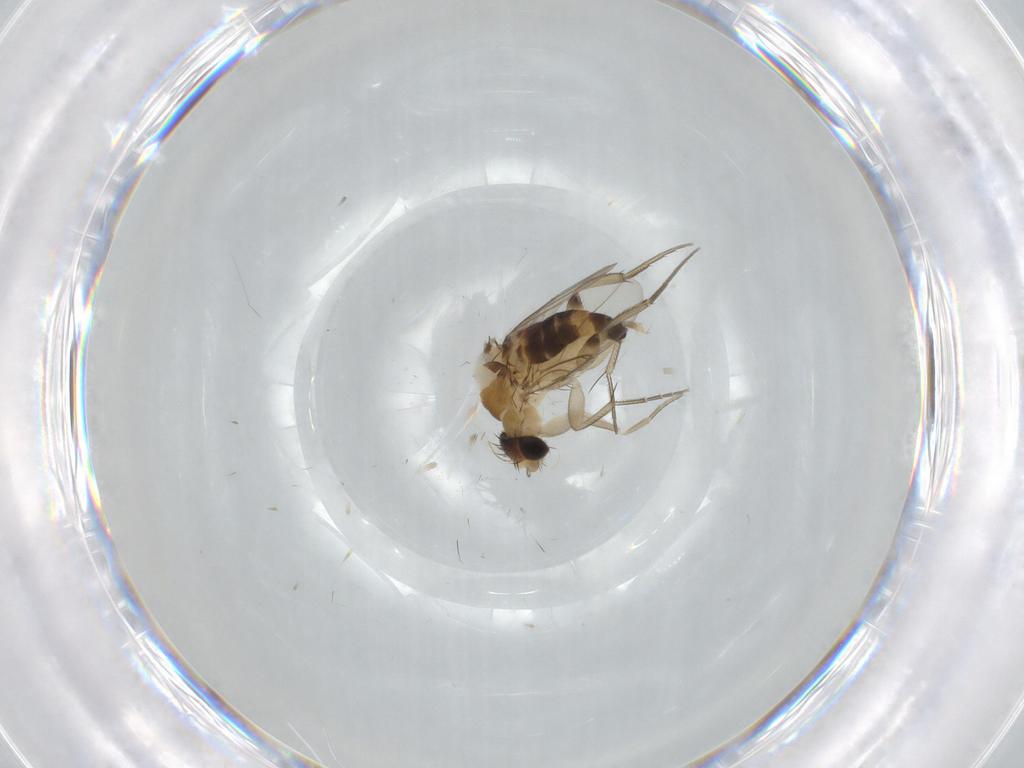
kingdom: Animalia
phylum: Arthropoda
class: Insecta
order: Diptera
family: Phoridae
